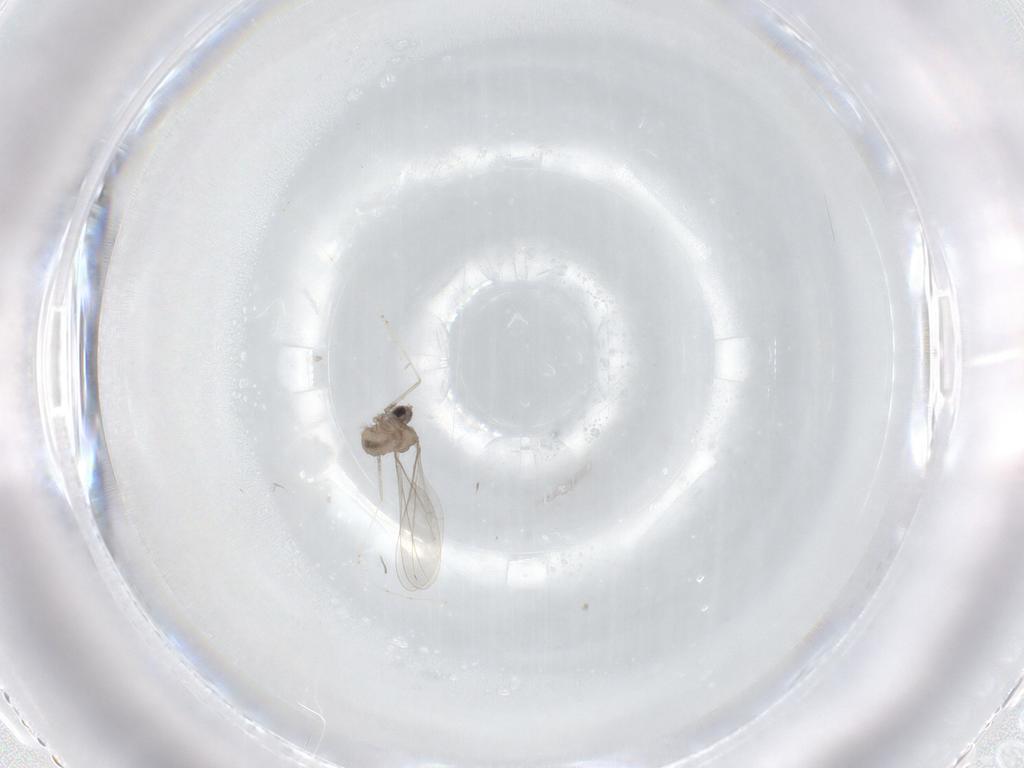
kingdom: Animalia
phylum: Arthropoda
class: Insecta
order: Diptera
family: Cecidomyiidae
